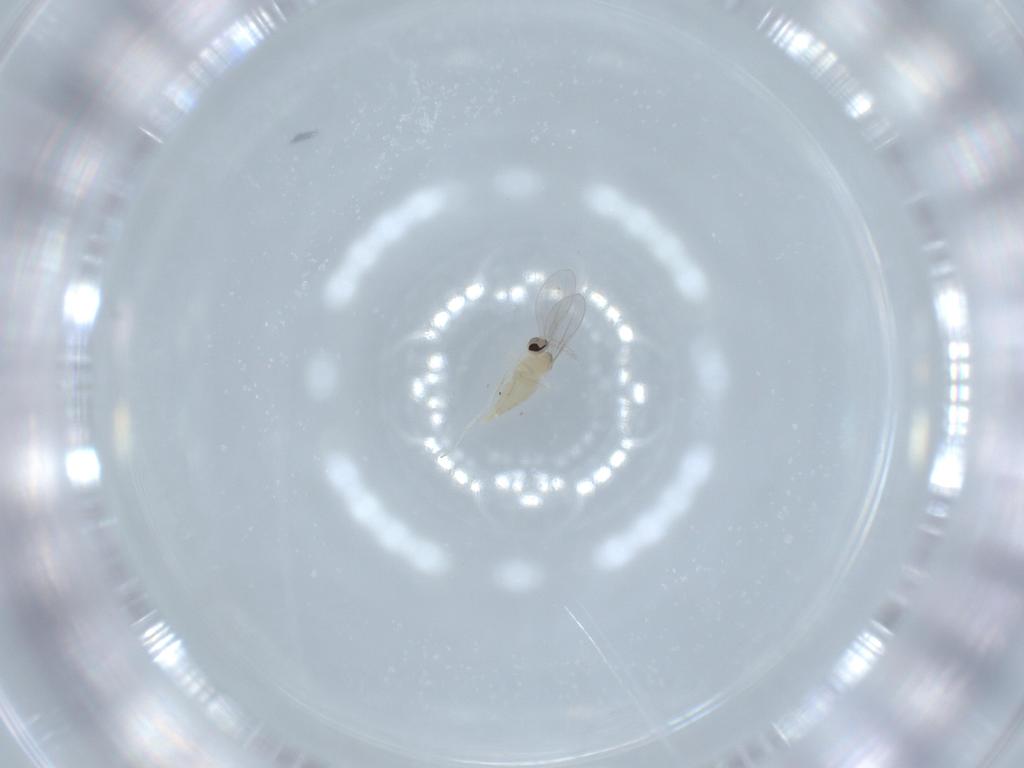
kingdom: Animalia
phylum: Arthropoda
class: Insecta
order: Diptera
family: Cecidomyiidae
